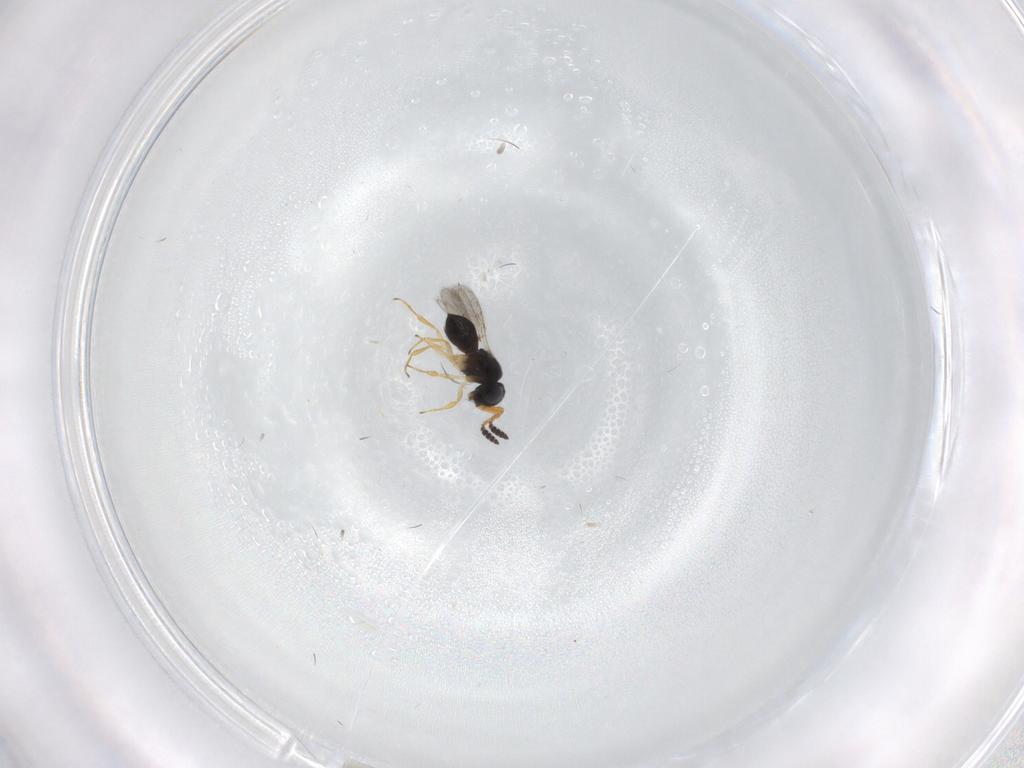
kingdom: Animalia
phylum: Arthropoda
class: Insecta
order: Hymenoptera
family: Scelionidae
